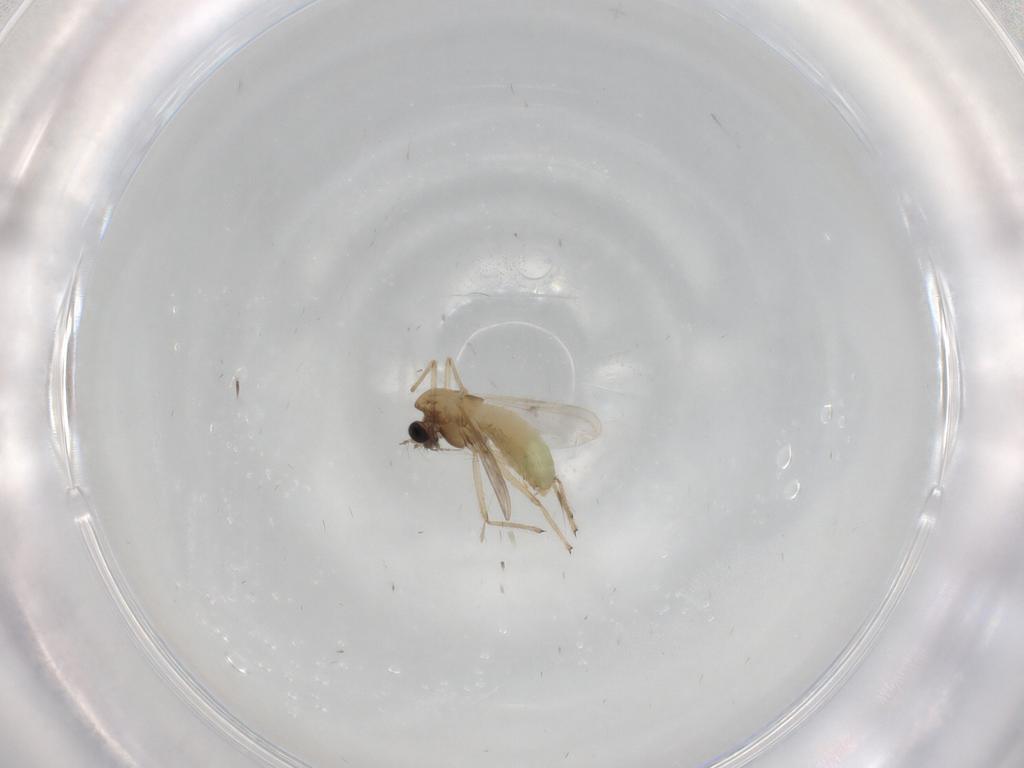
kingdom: Animalia
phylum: Arthropoda
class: Insecta
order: Diptera
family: Chironomidae
